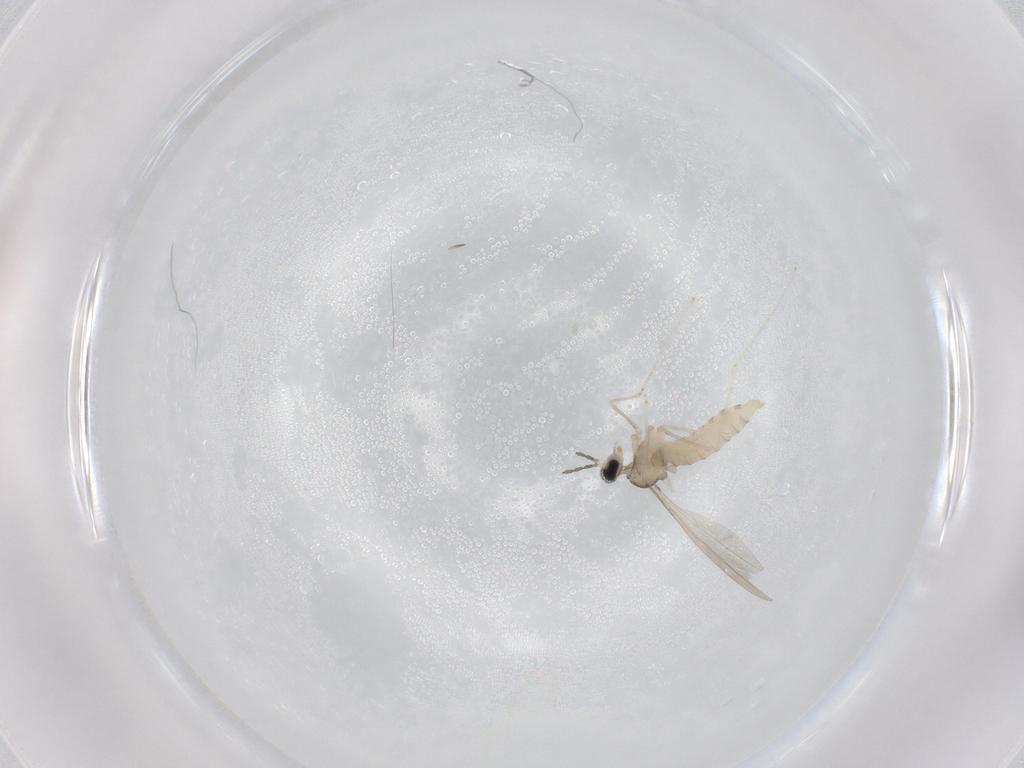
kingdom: Animalia
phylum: Arthropoda
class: Insecta
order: Diptera
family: Cecidomyiidae
